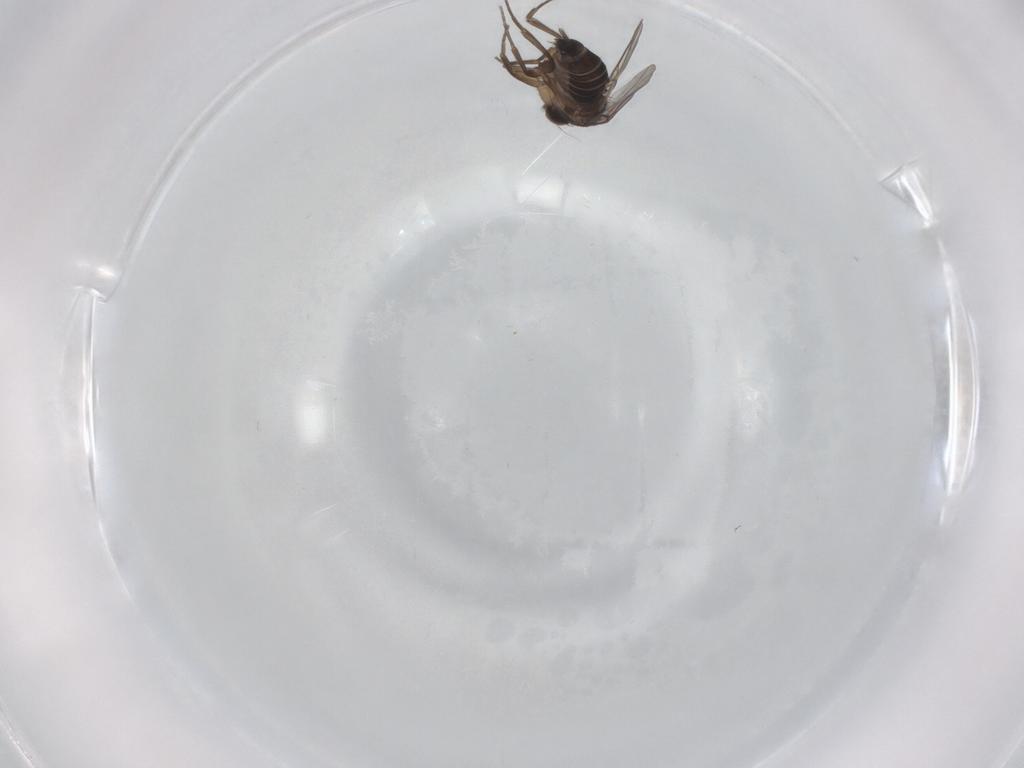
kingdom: Animalia
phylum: Arthropoda
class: Insecta
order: Diptera
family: Phoridae
